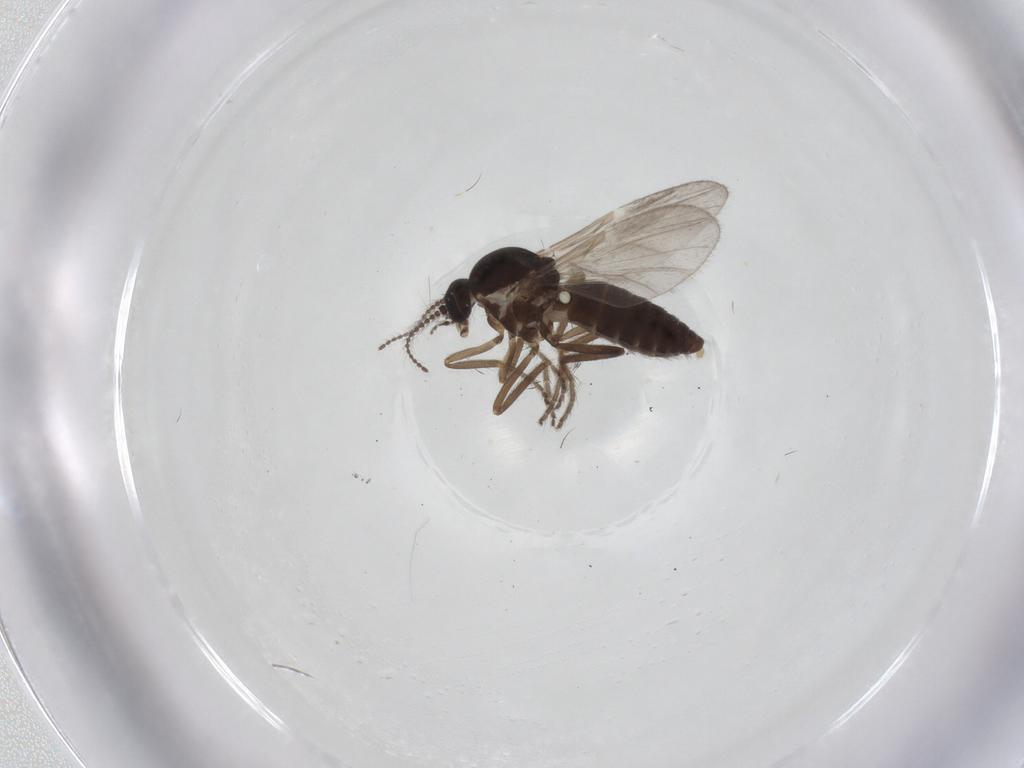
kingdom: Animalia
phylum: Arthropoda
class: Insecta
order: Diptera
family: Ceratopogonidae
